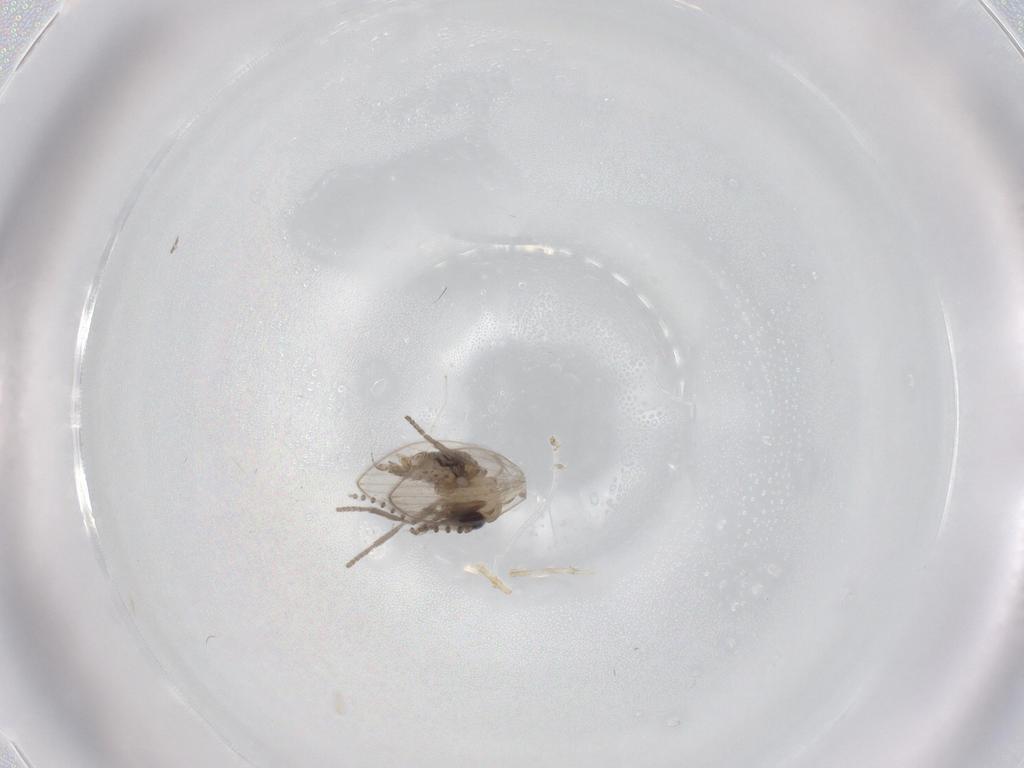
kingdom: Animalia
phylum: Arthropoda
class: Insecta
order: Diptera
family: Psychodidae
